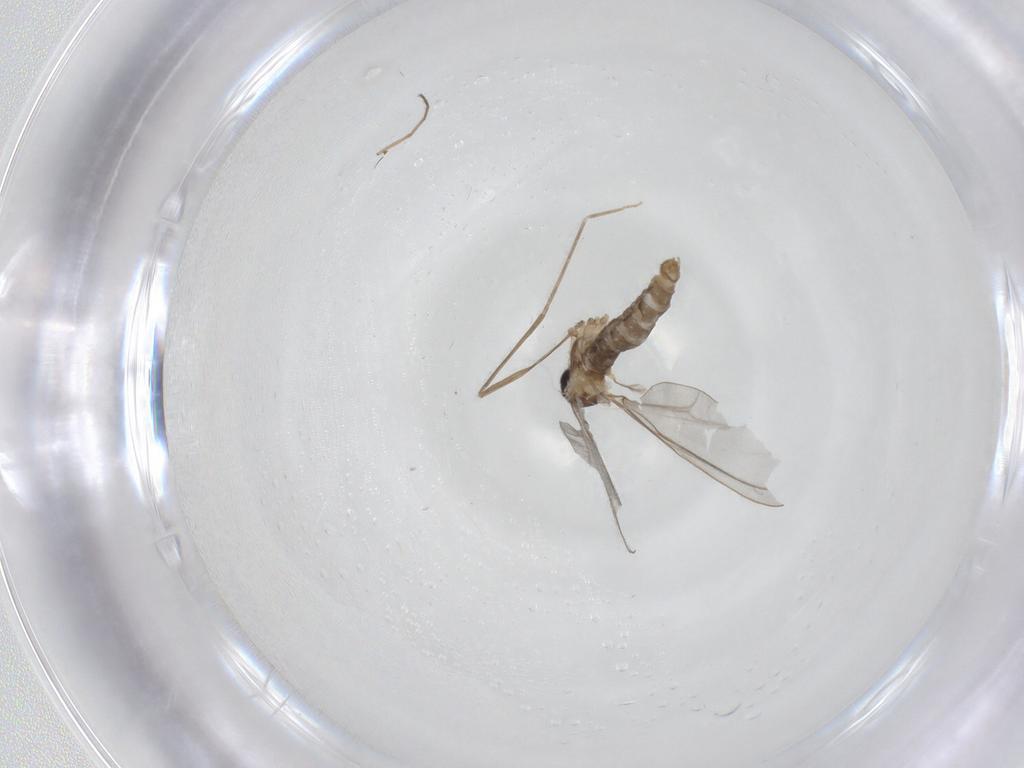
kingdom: Animalia
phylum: Arthropoda
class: Insecta
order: Diptera
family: Cecidomyiidae
